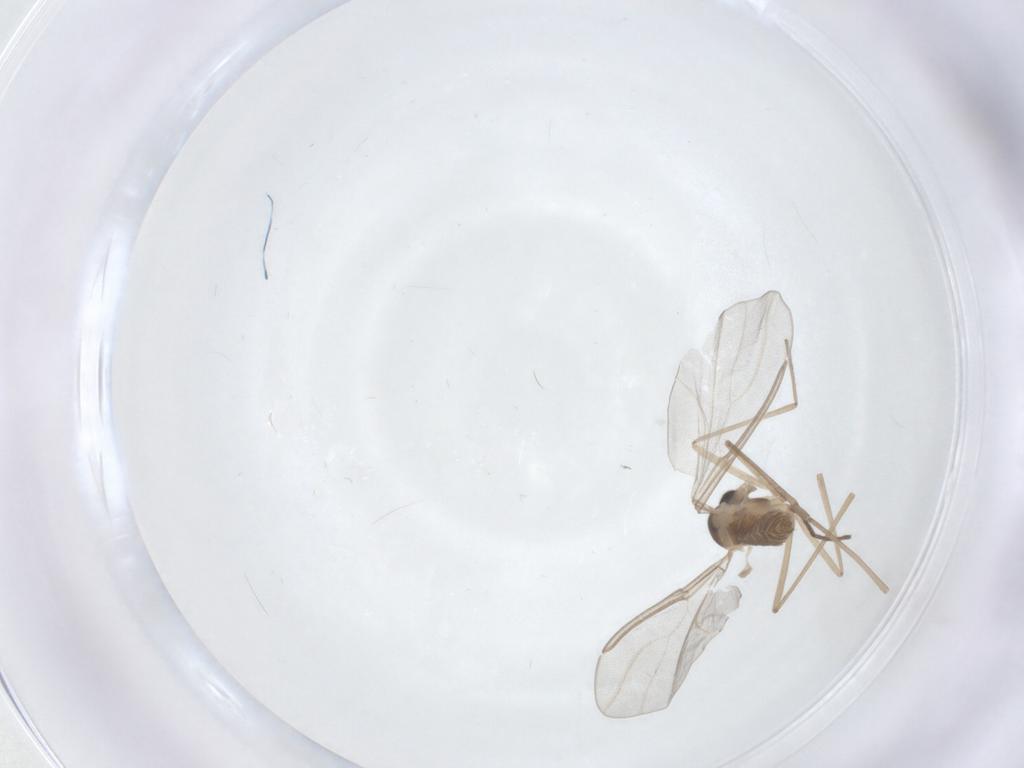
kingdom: Animalia
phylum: Arthropoda
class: Insecta
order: Diptera
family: Cecidomyiidae
